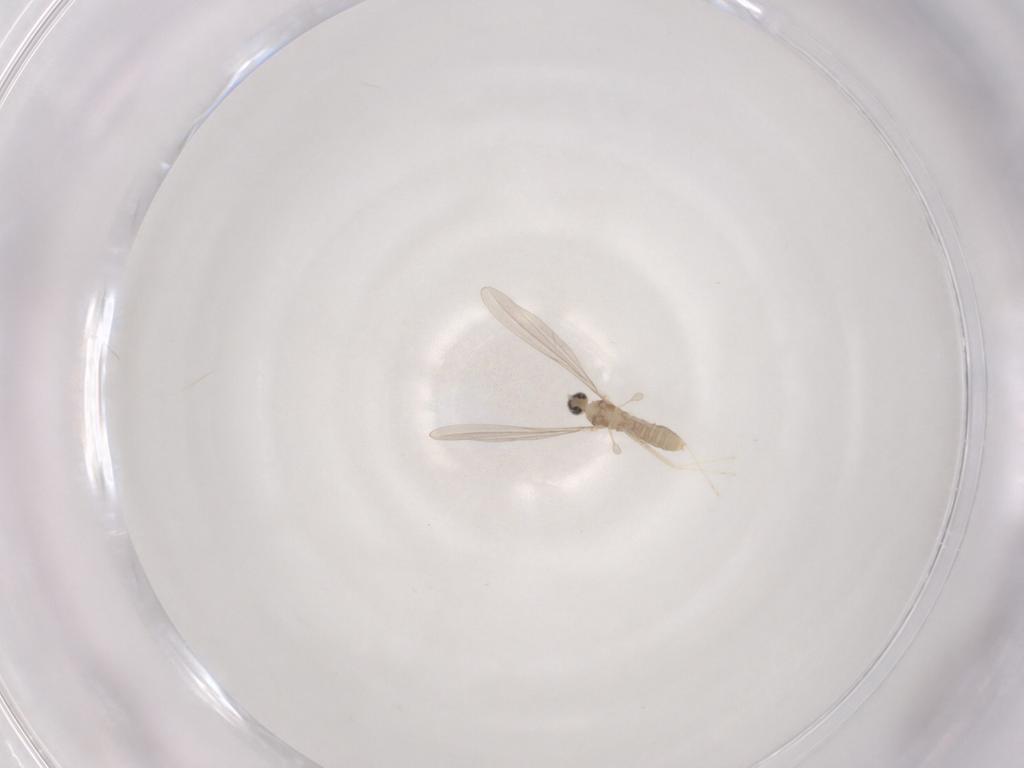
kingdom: Animalia
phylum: Arthropoda
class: Insecta
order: Diptera
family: Cecidomyiidae
